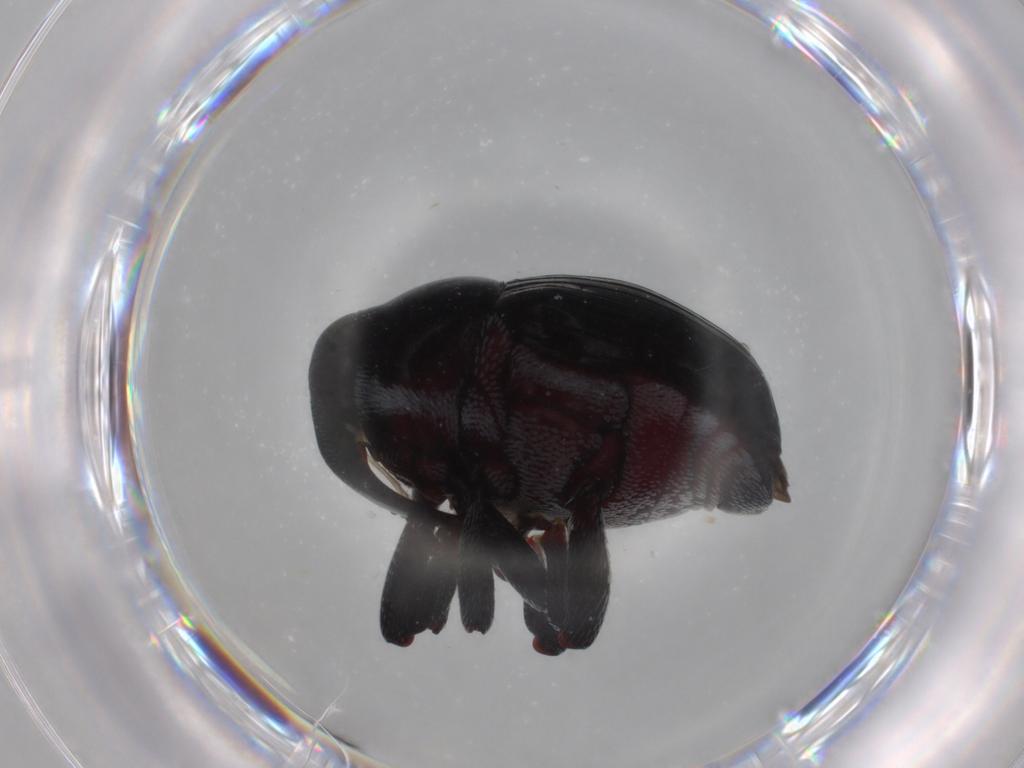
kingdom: Animalia
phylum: Arthropoda
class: Insecta
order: Coleoptera
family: Curculionidae
